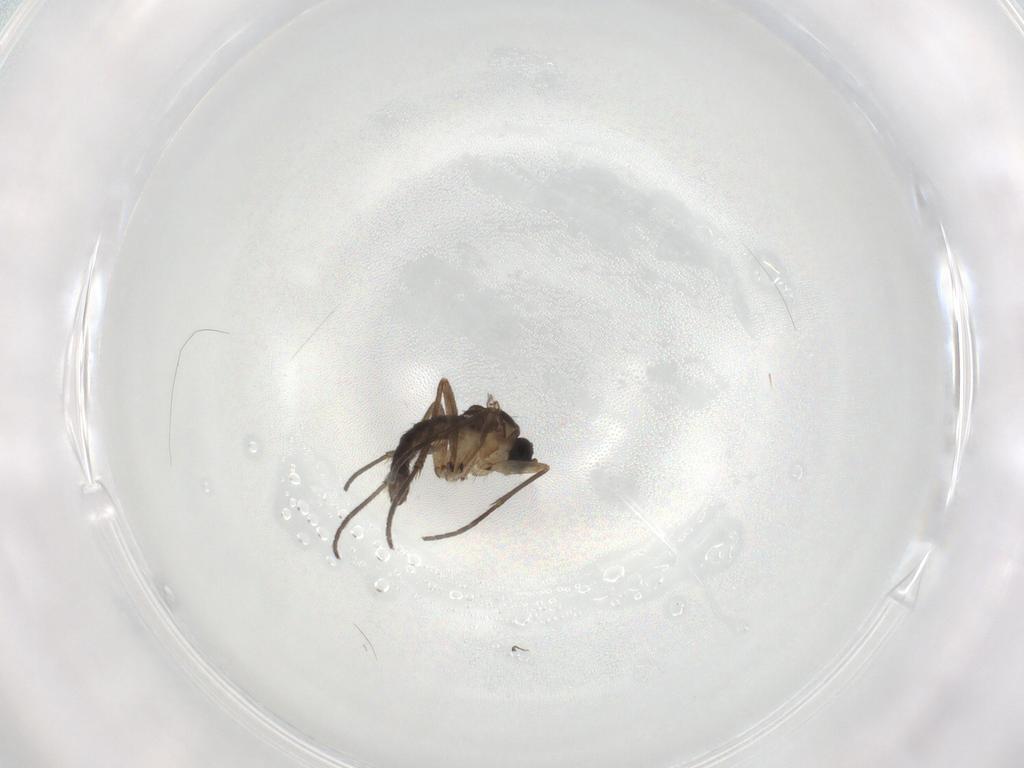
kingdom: Animalia
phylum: Arthropoda
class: Insecta
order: Diptera
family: Sciaridae
